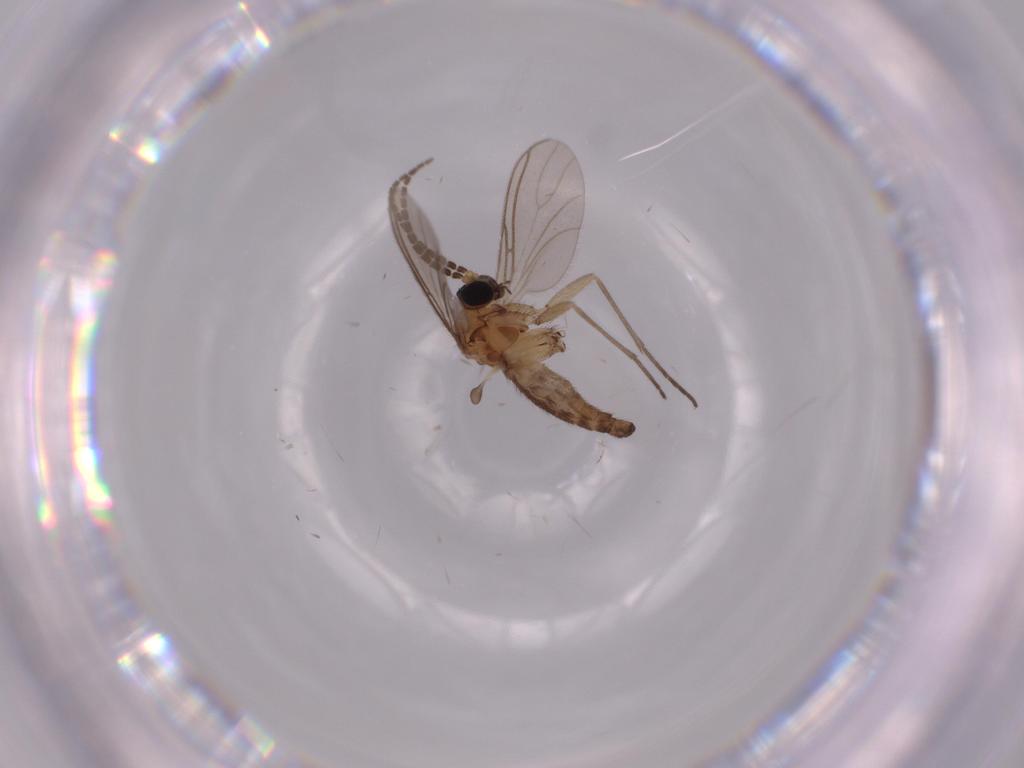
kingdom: Animalia
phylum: Arthropoda
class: Insecta
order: Diptera
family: Sciaridae
